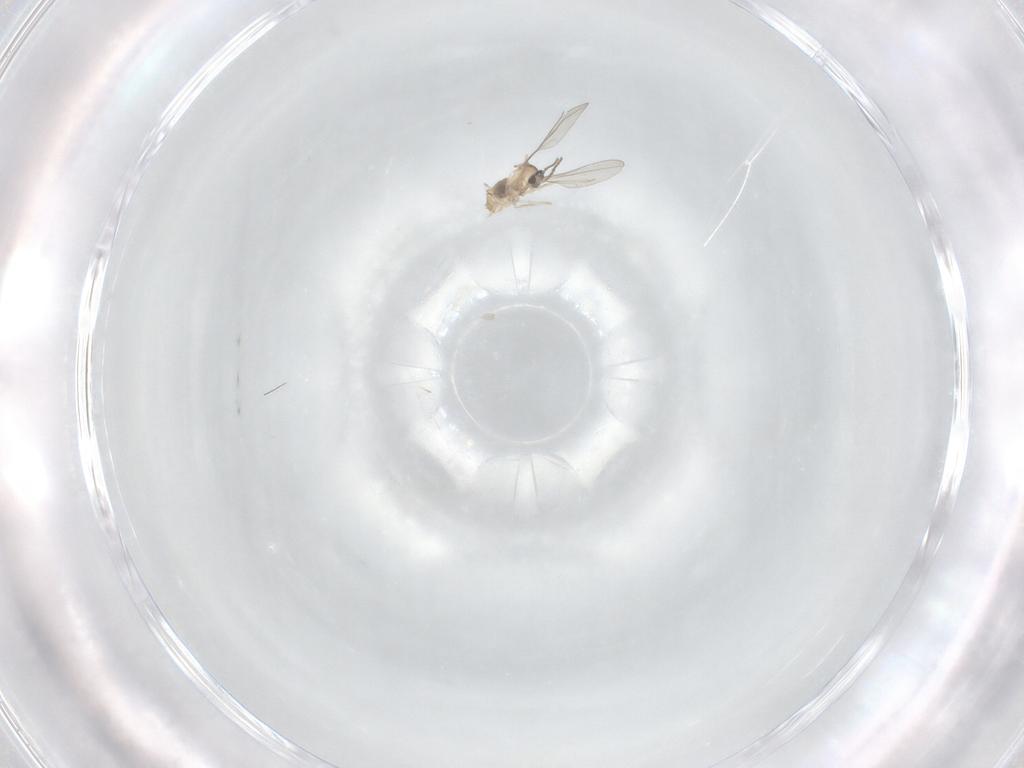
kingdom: Animalia
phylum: Arthropoda
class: Insecta
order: Diptera
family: Cecidomyiidae
